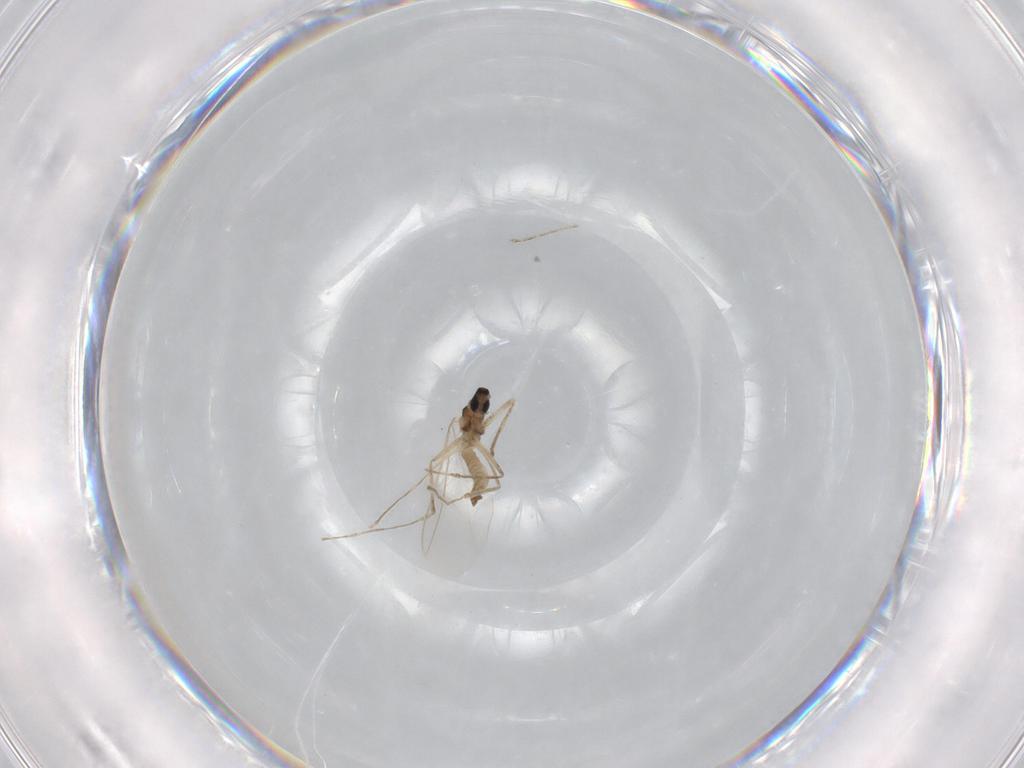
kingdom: Animalia
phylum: Arthropoda
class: Insecta
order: Diptera
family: Cecidomyiidae
